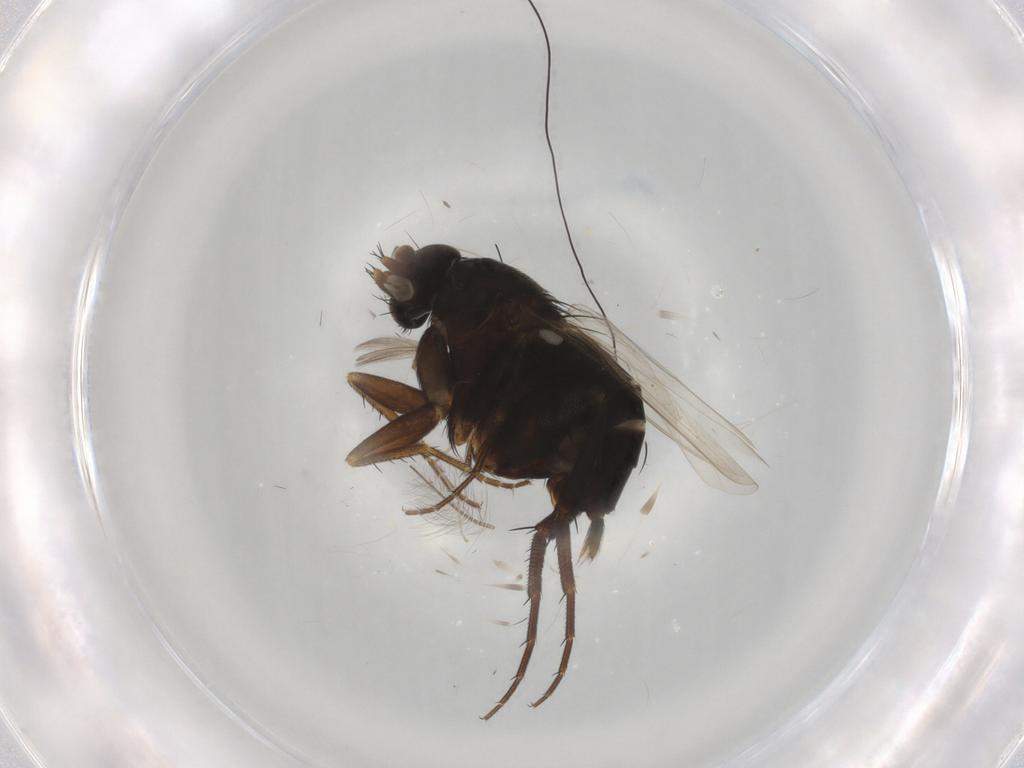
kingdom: Animalia
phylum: Arthropoda
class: Insecta
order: Diptera
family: Phoridae
